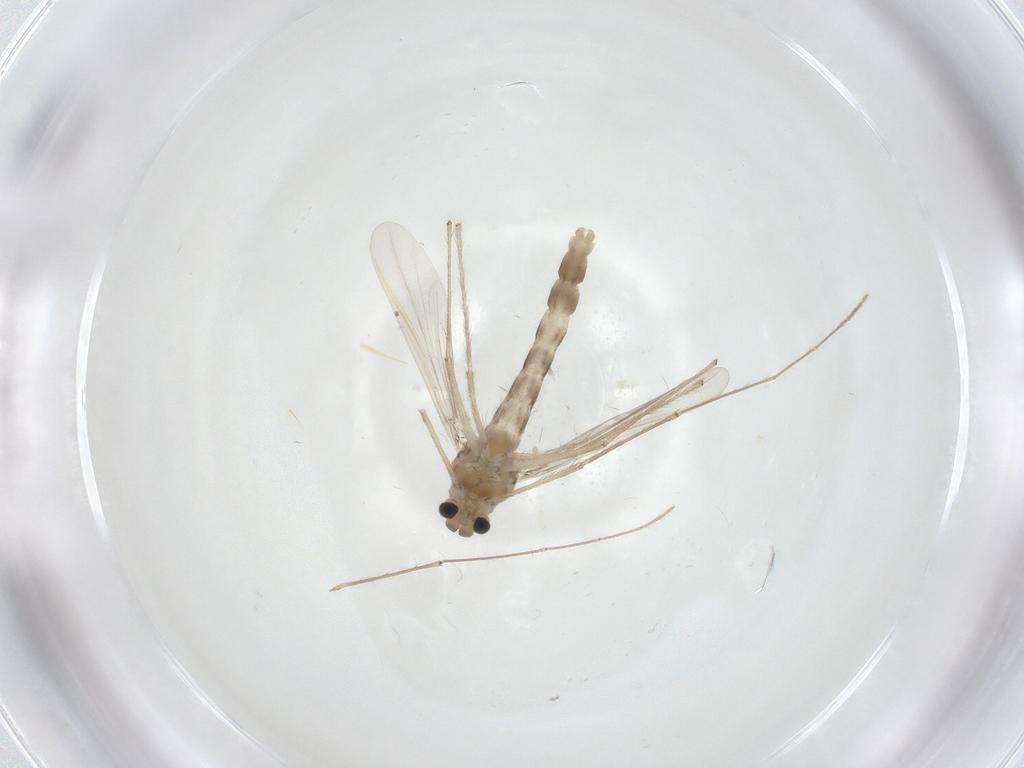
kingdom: Animalia
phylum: Arthropoda
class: Insecta
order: Diptera
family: Chironomidae
